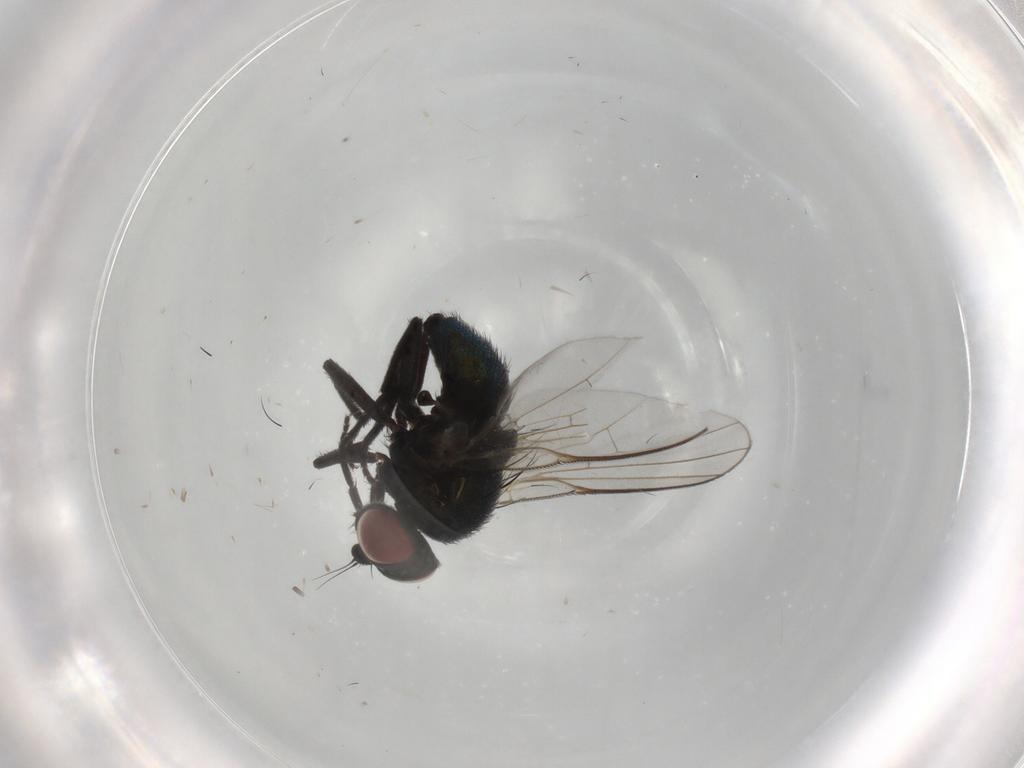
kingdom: Animalia
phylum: Arthropoda
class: Insecta
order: Diptera
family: Agromyzidae
